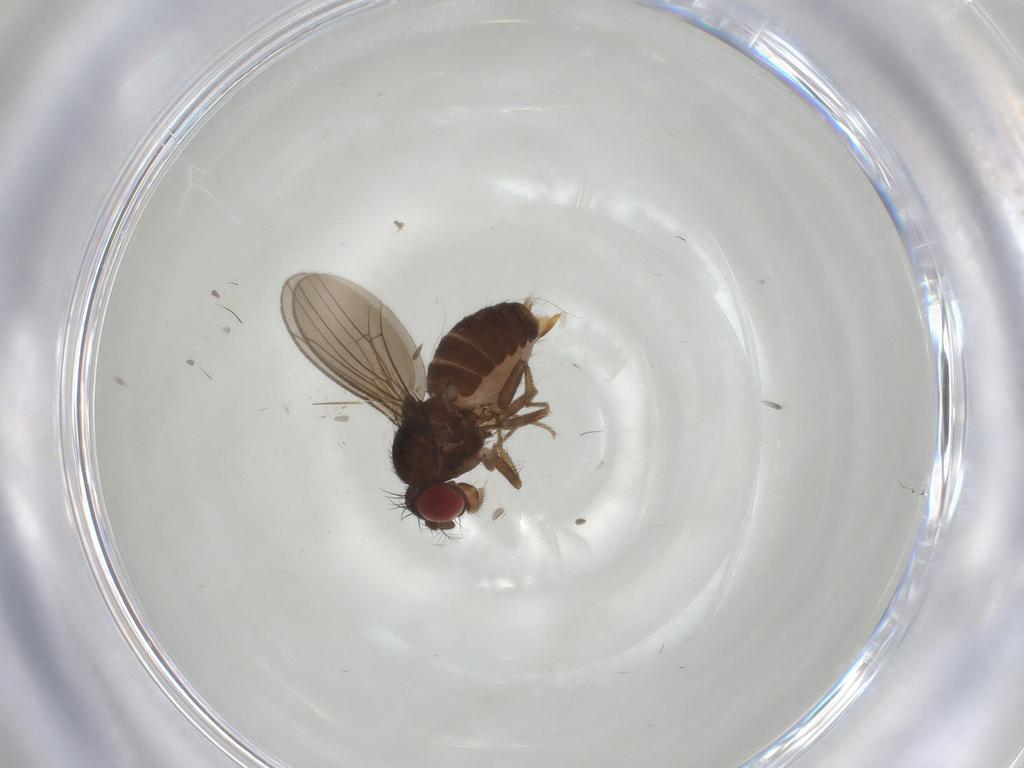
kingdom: Animalia
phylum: Arthropoda
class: Insecta
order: Diptera
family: Drosophilidae
